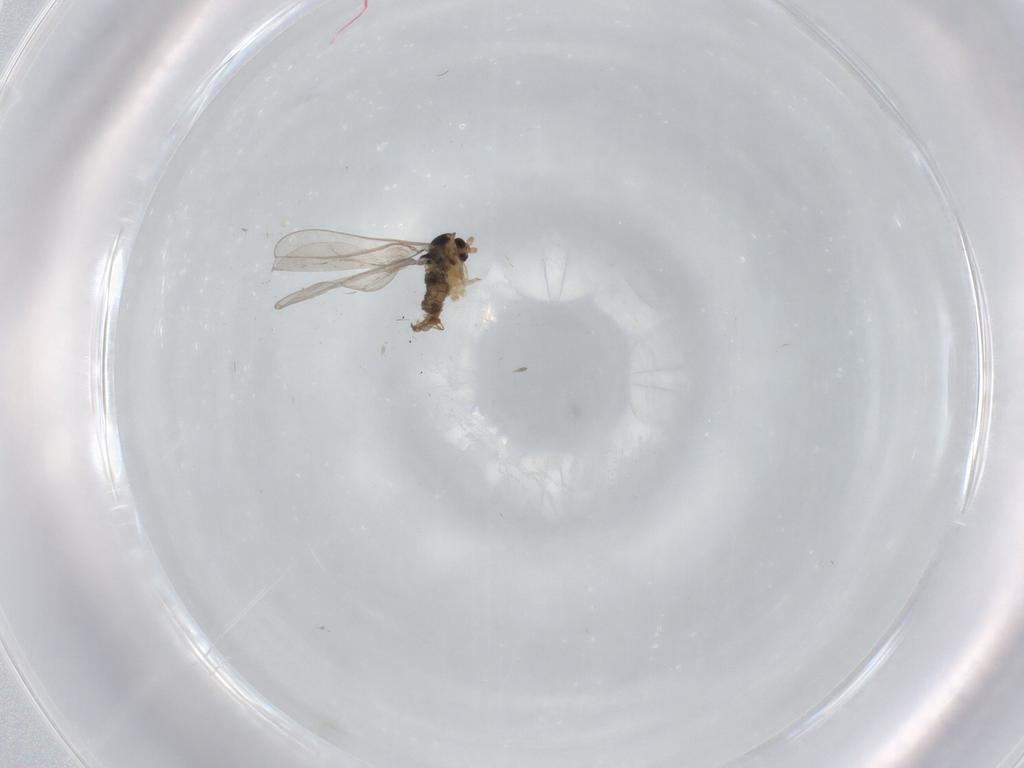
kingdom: Animalia
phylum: Arthropoda
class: Insecta
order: Diptera
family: Cecidomyiidae
